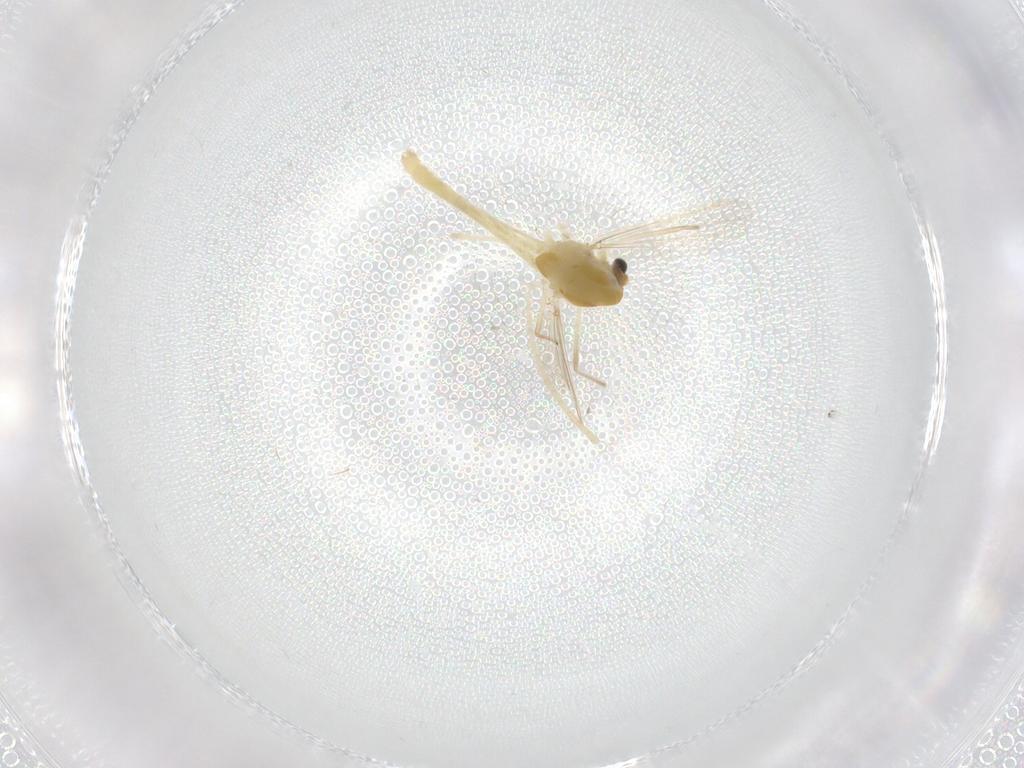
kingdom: Animalia
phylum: Arthropoda
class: Insecta
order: Diptera
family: Chironomidae
